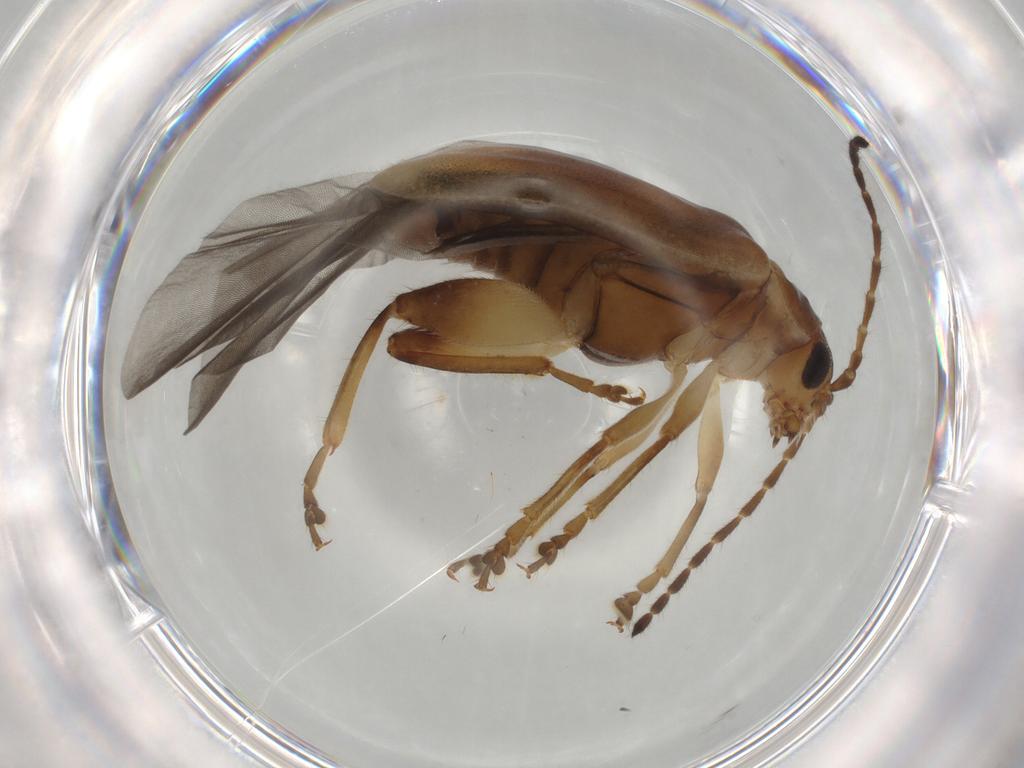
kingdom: Animalia
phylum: Arthropoda
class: Insecta
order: Coleoptera
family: Chrysomelidae
